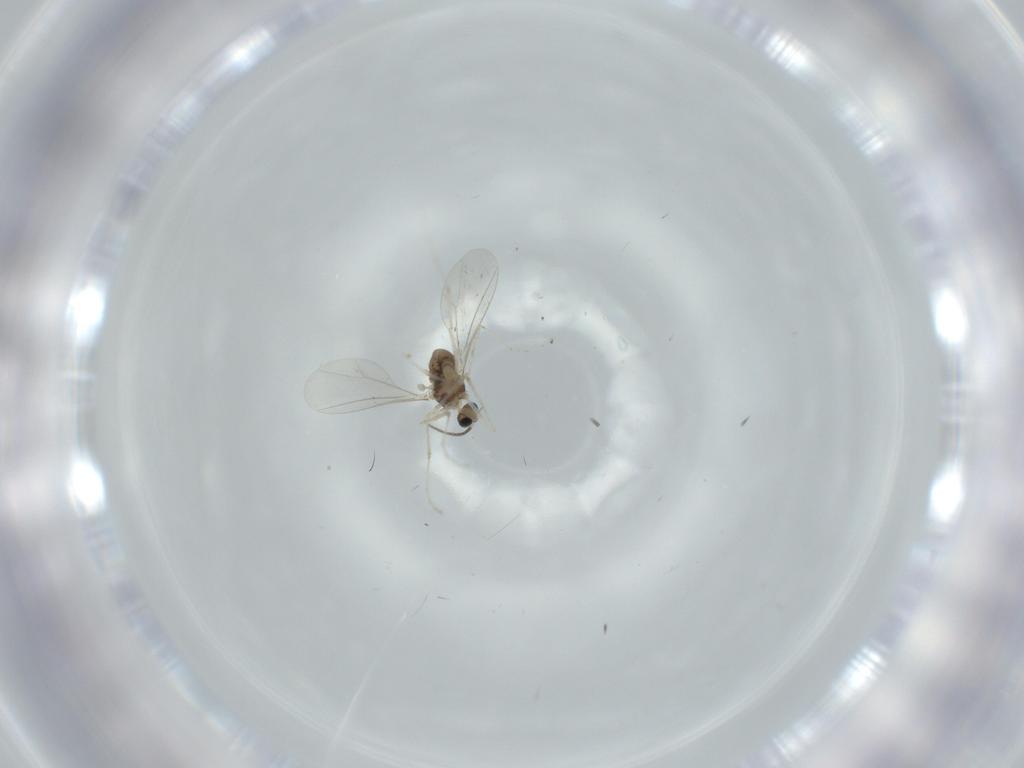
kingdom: Animalia
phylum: Arthropoda
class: Insecta
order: Diptera
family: Cecidomyiidae
